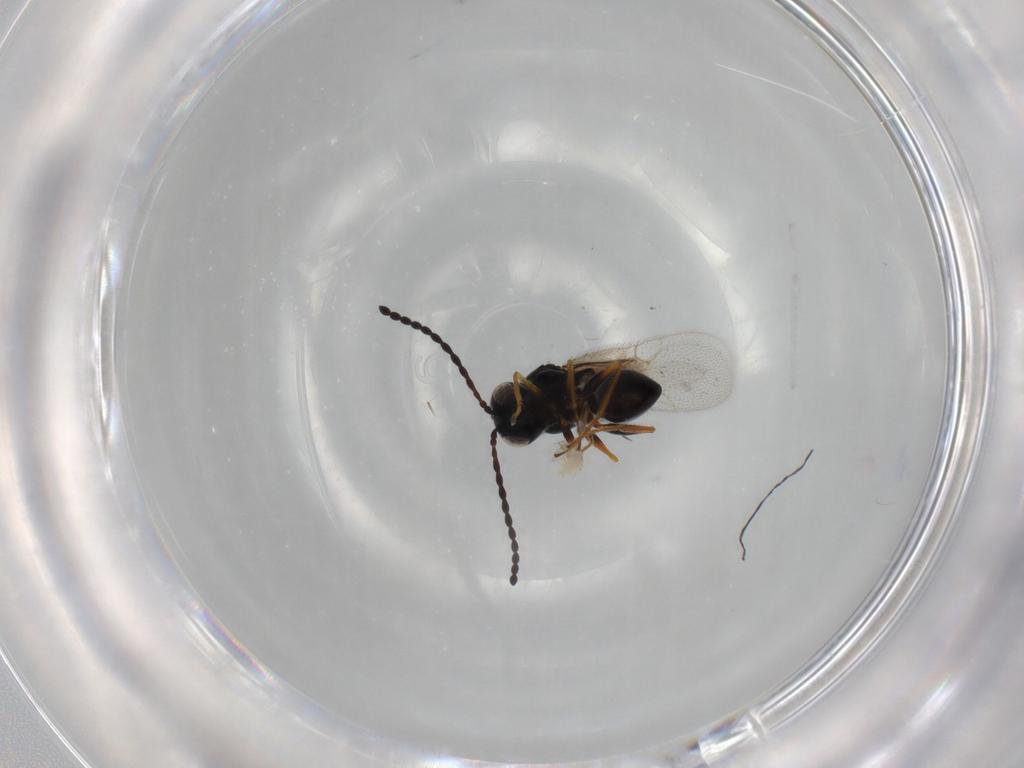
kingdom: Animalia
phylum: Arthropoda
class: Insecta
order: Hymenoptera
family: Figitidae
